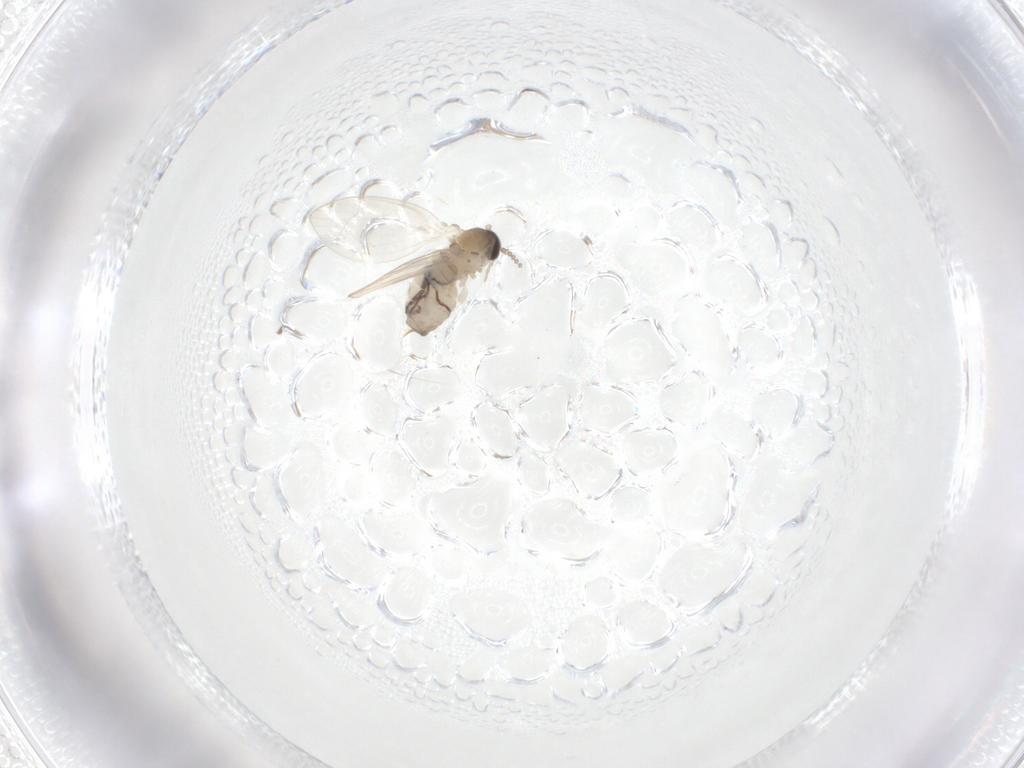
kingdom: Animalia
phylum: Arthropoda
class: Insecta
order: Diptera
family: Psychodidae
